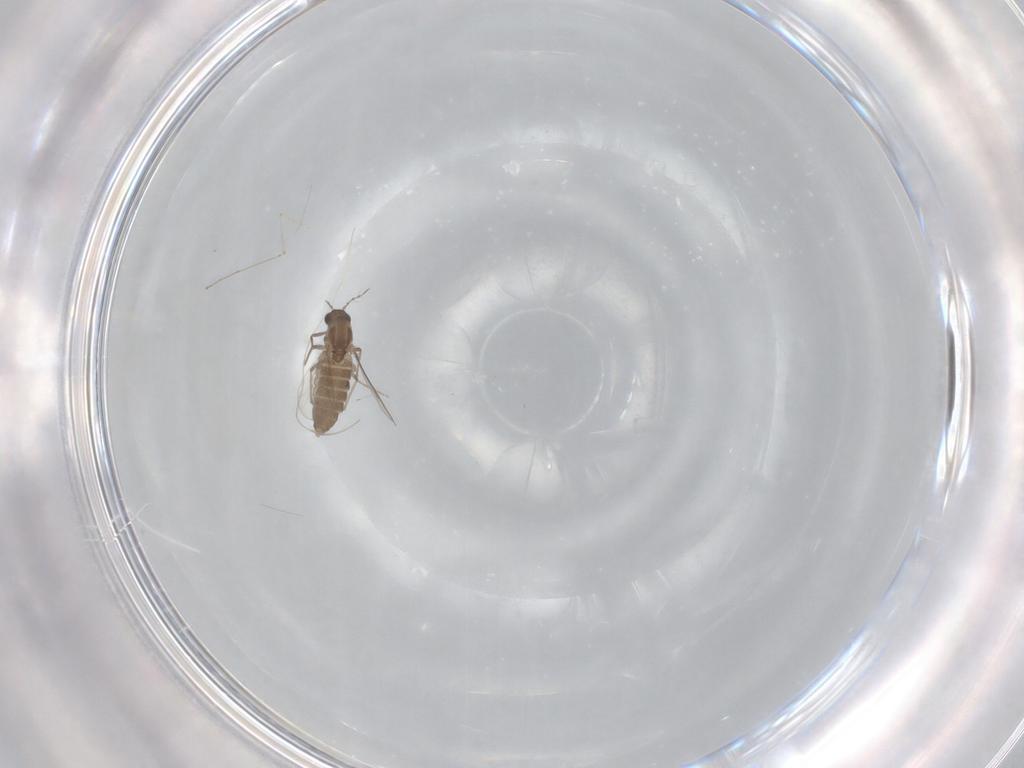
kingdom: Animalia
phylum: Arthropoda
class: Insecta
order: Diptera
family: Chironomidae
